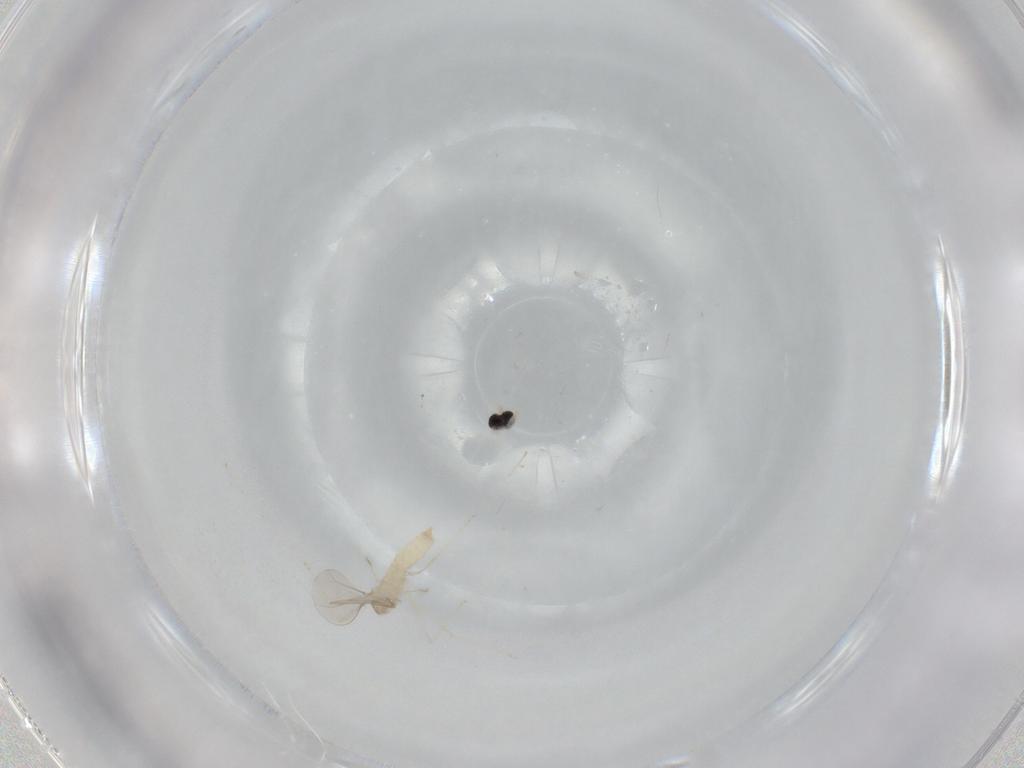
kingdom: Animalia
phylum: Arthropoda
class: Insecta
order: Diptera
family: Cecidomyiidae
